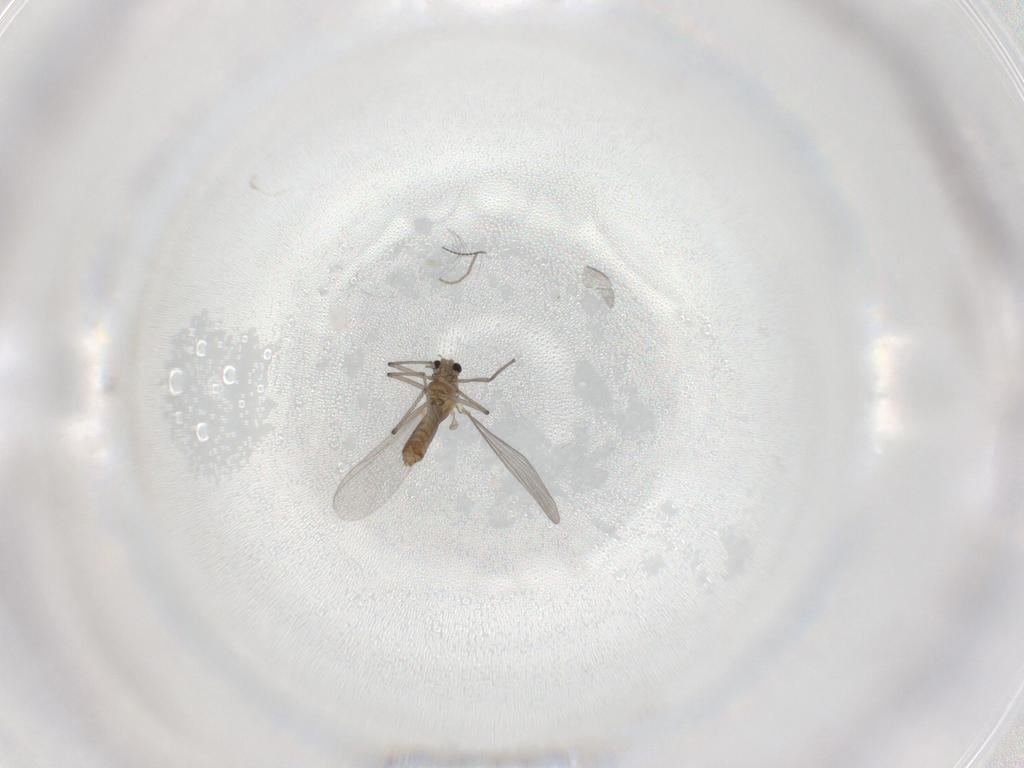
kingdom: Animalia
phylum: Arthropoda
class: Insecta
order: Diptera
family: Chironomidae
